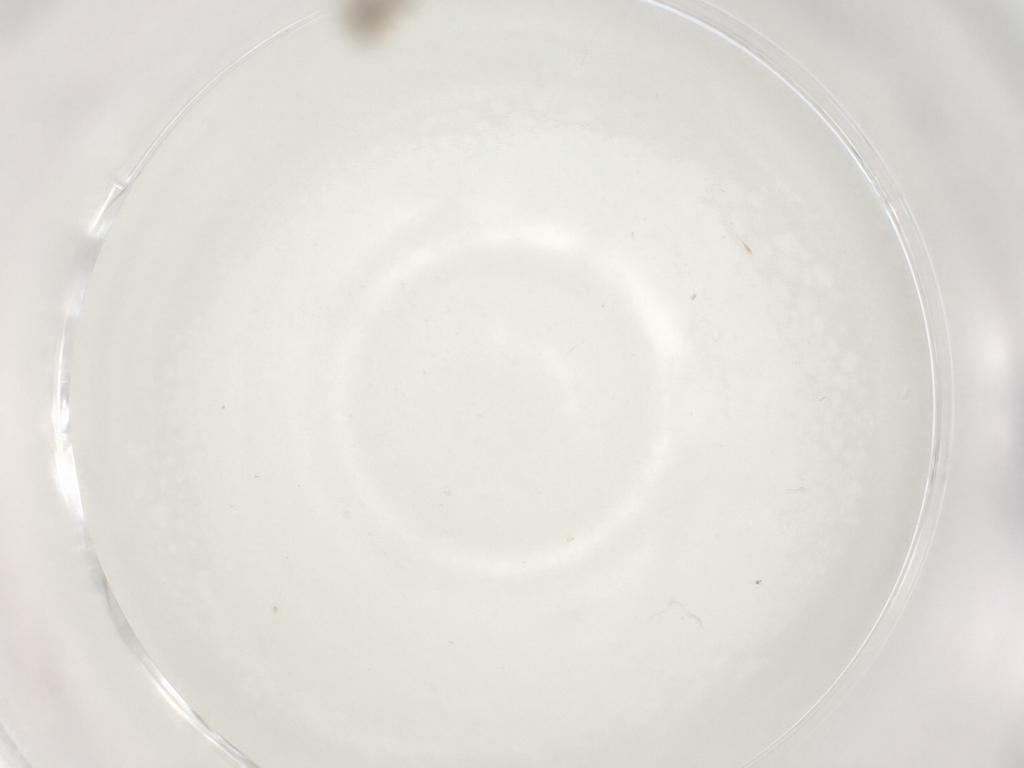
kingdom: Animalia
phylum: Arthropoda
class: Insecta
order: Diptera
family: Cecidomyiidae
